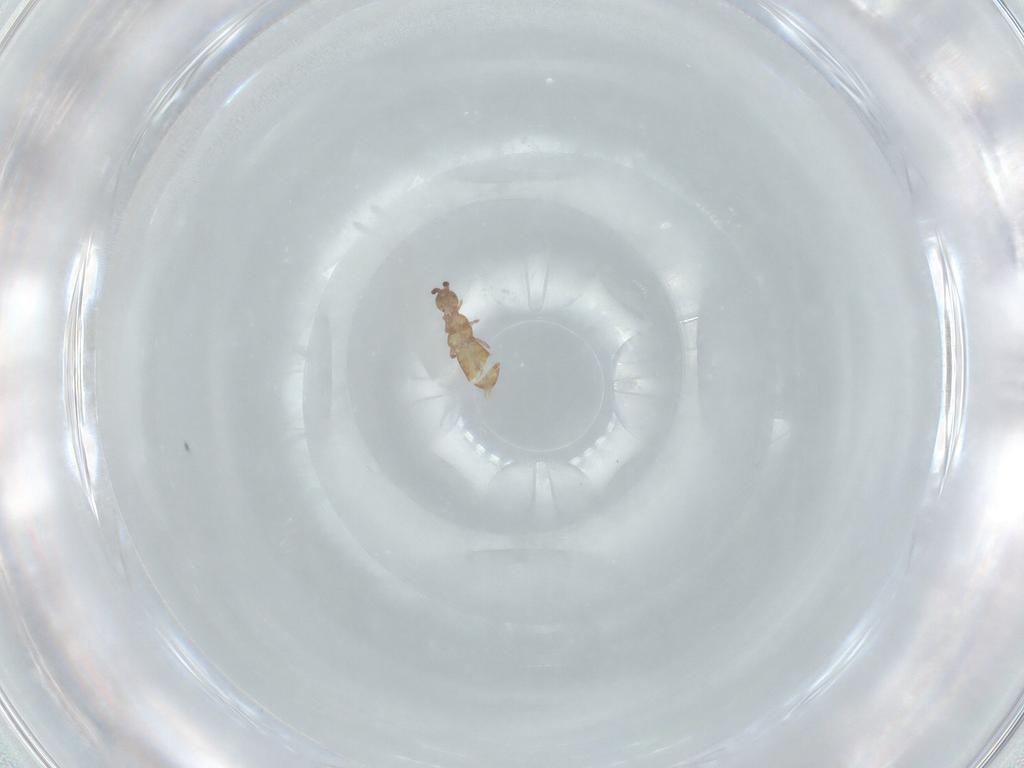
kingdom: Animalia
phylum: Arthropoda
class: Collembola
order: Entomobryomorpha
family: Isotomidae
